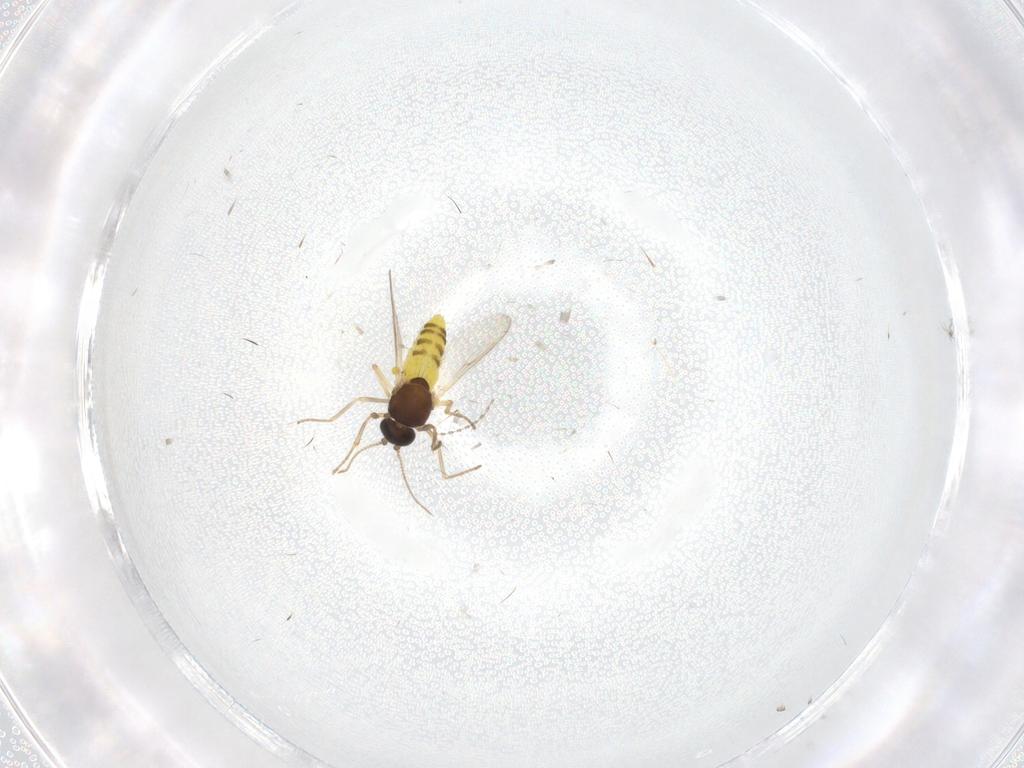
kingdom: Animalia
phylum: Arthropoda
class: Insecta
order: Diptera
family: Ceratopogonidae
